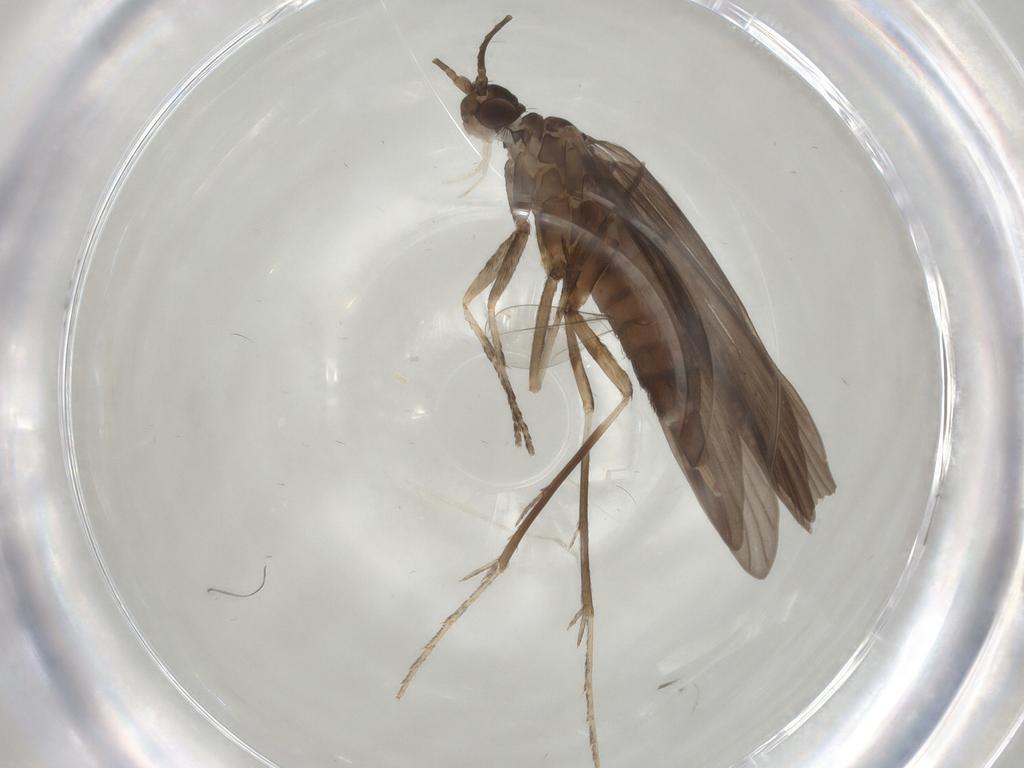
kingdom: Animalia
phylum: Arthropoda
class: Insecta
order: Trichoptera
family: Xiphocentronidae
